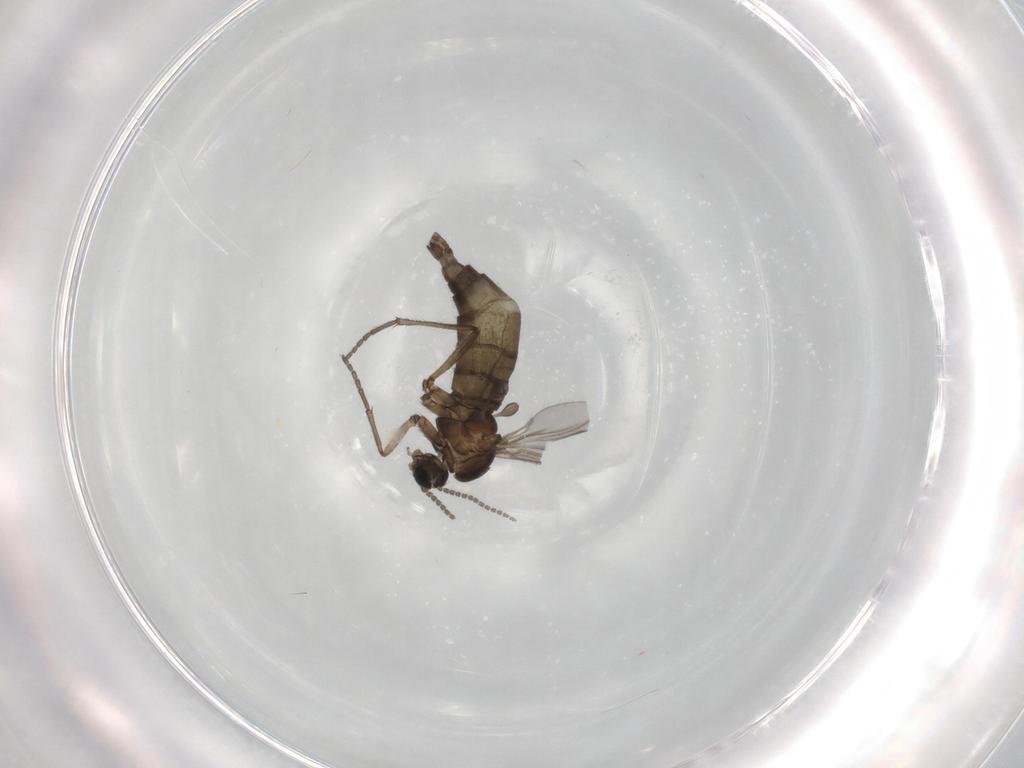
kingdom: Animalia
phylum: Arthropoda
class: Insecta
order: Diptera
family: Sciaridae
